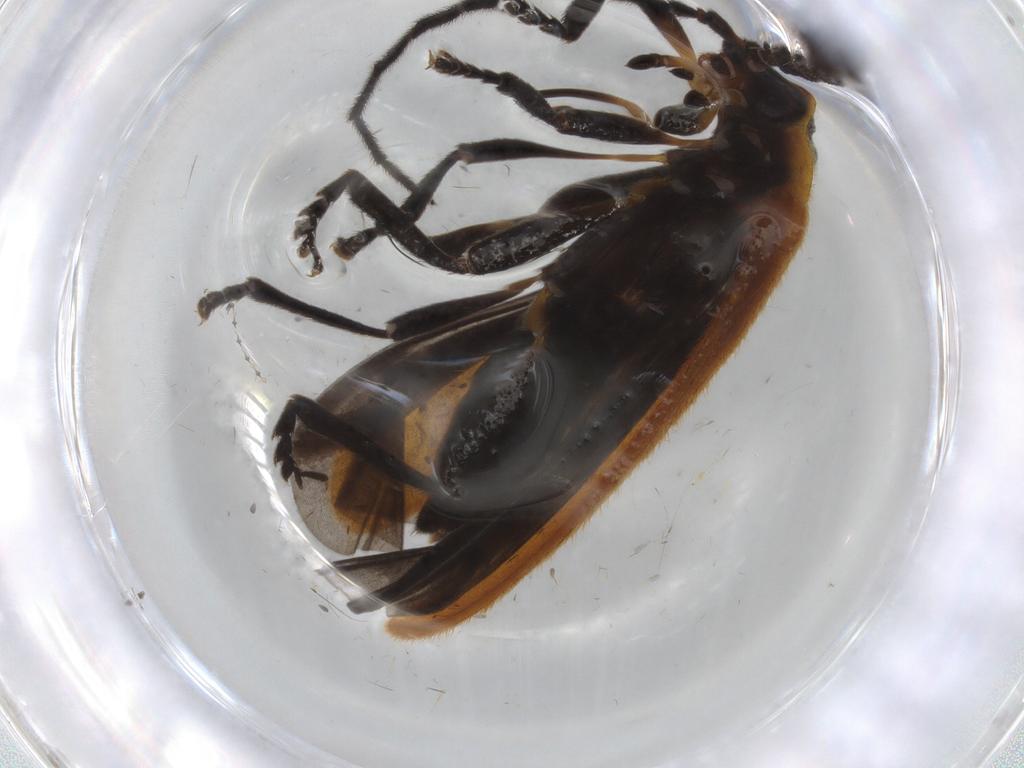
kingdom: Animalia
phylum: Arthropoda
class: Insecta
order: Coleoptera
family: Lycidae
